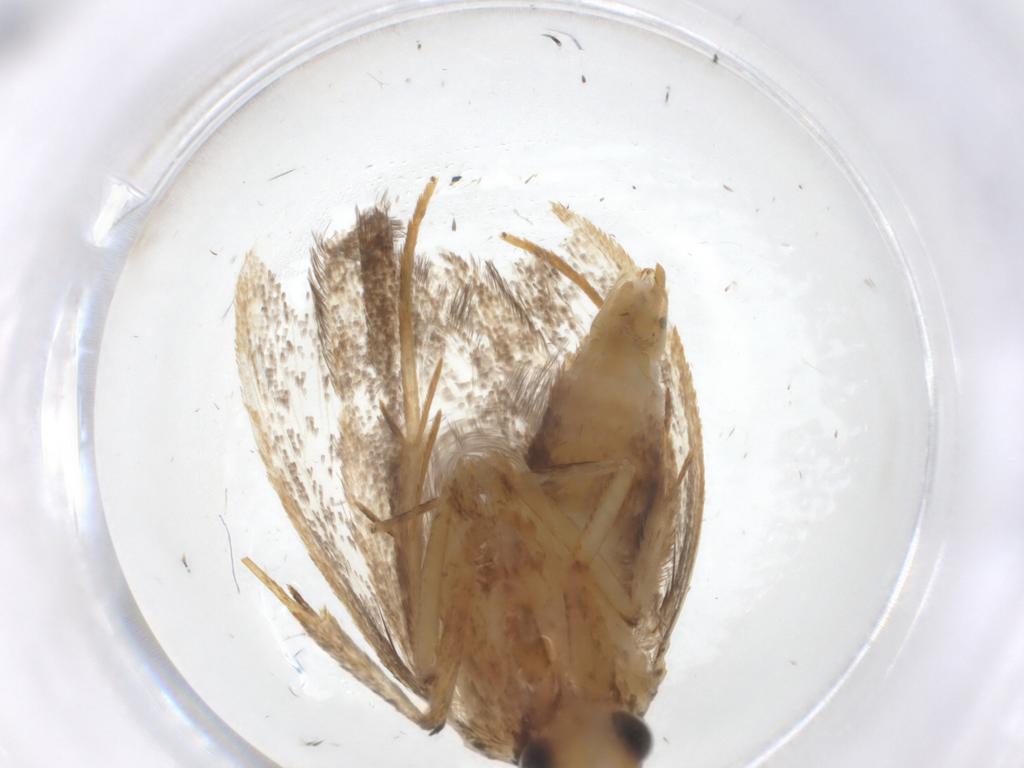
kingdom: Animalia
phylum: Arthropoda
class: Insecta
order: Lepidoptera
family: Lecithoceridae
